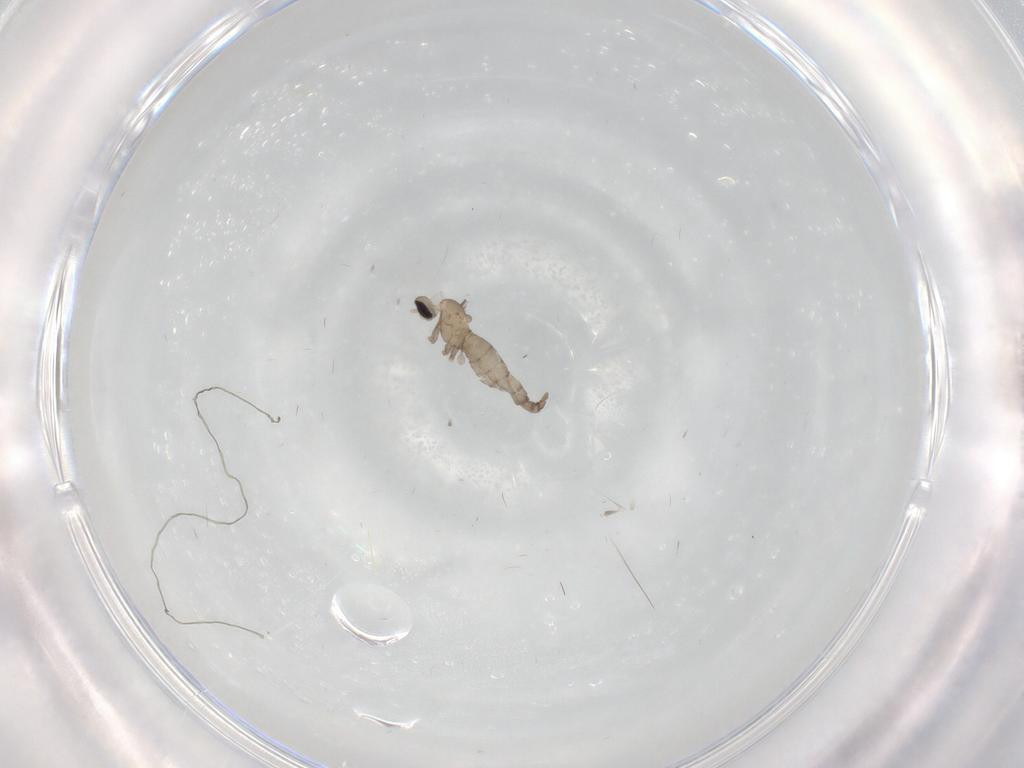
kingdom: Animalia
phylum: Arthropoda
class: Insecta
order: Diptera
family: Cecidomyiidae
